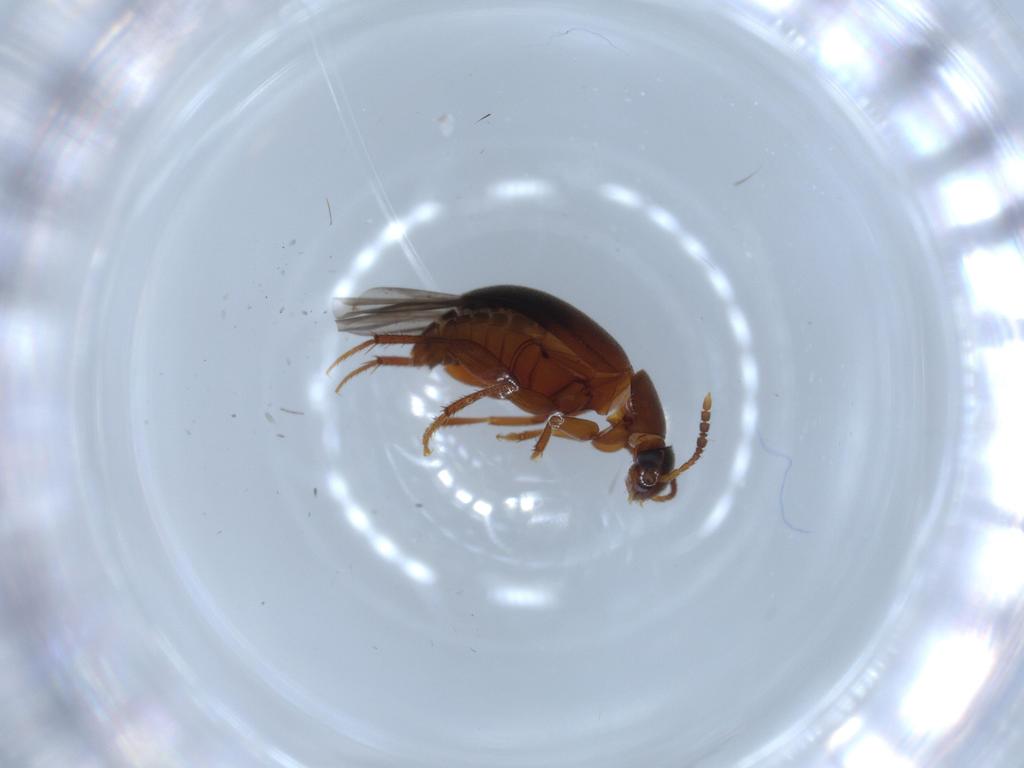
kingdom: Animalia
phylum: Arthropoda
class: Insecta
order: Coleoptera
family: Leiodidae
